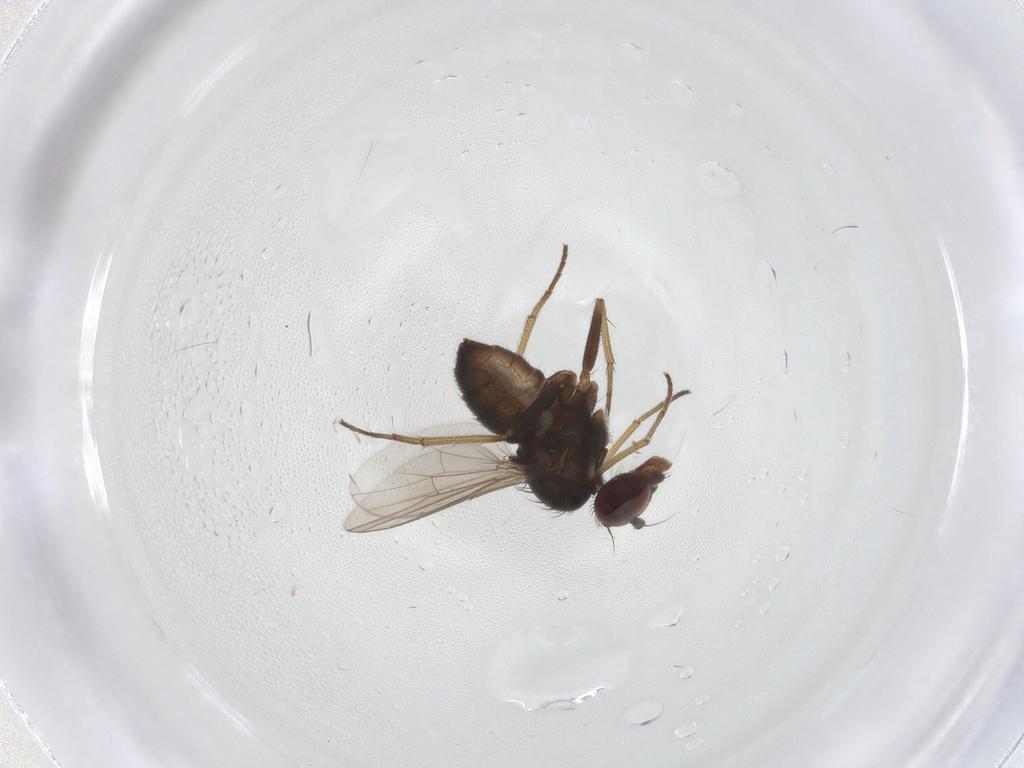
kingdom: Animalia
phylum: Arthropoda
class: Insecta
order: Diptera
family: Dolichopodidae
